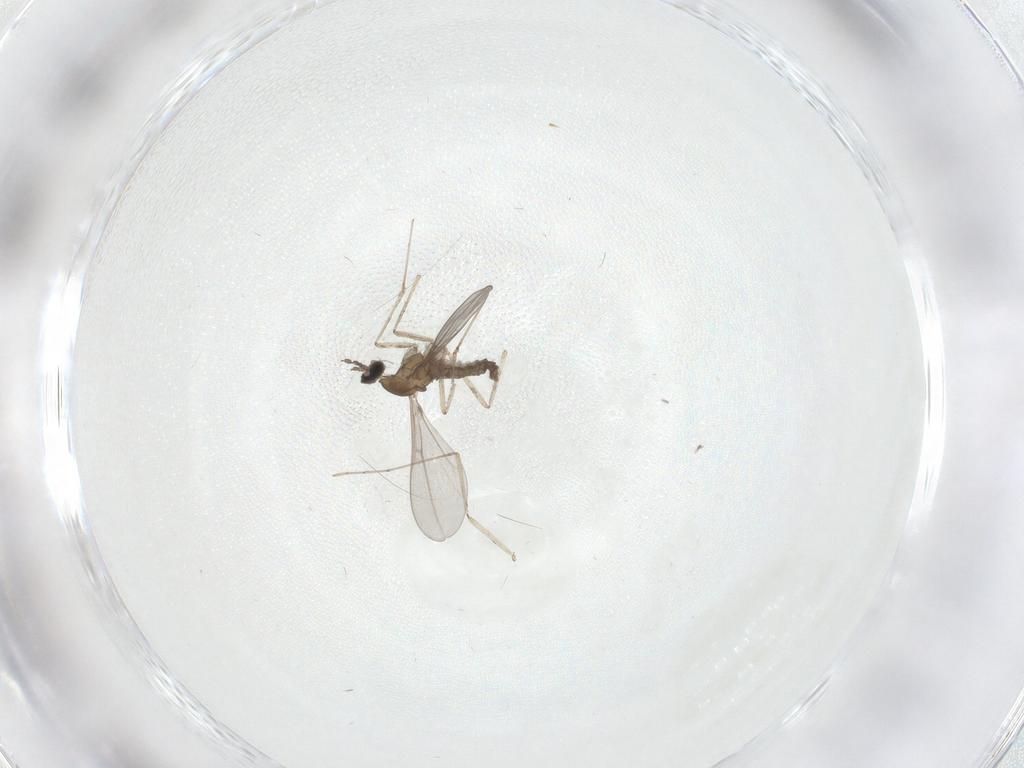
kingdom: Animalia
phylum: Arthropoda
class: Insecta
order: Diptera
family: Cecidomyiidae
